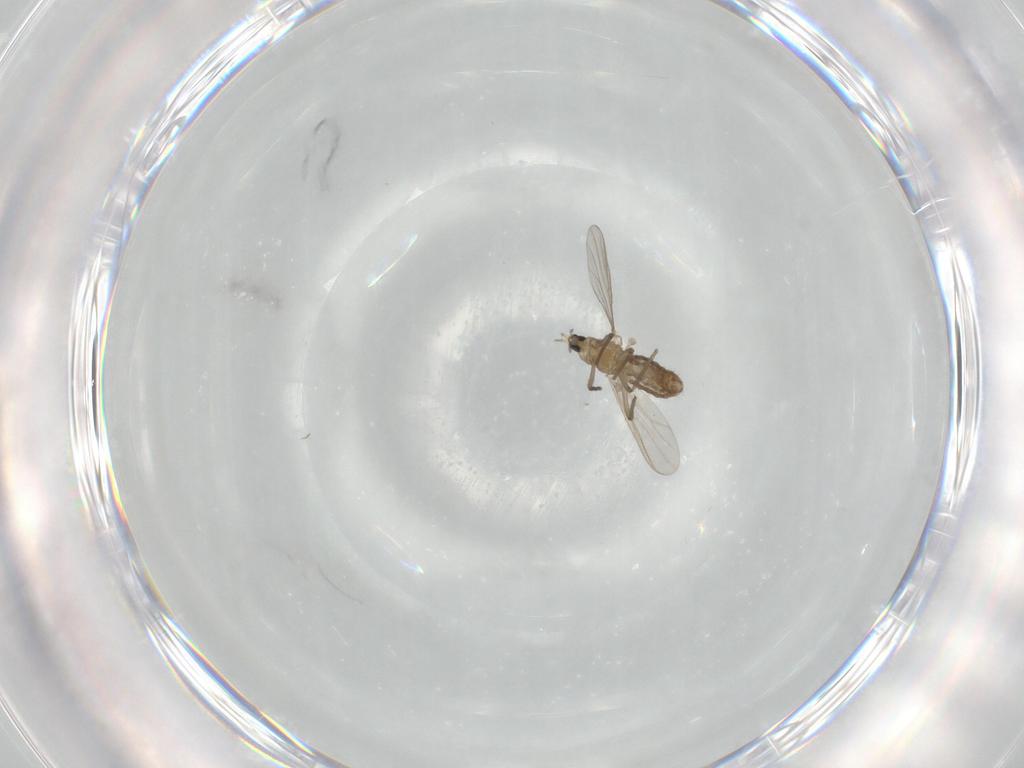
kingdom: Animalia
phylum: Arthropoda
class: Insecta
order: Diptera
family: Chironomidae
